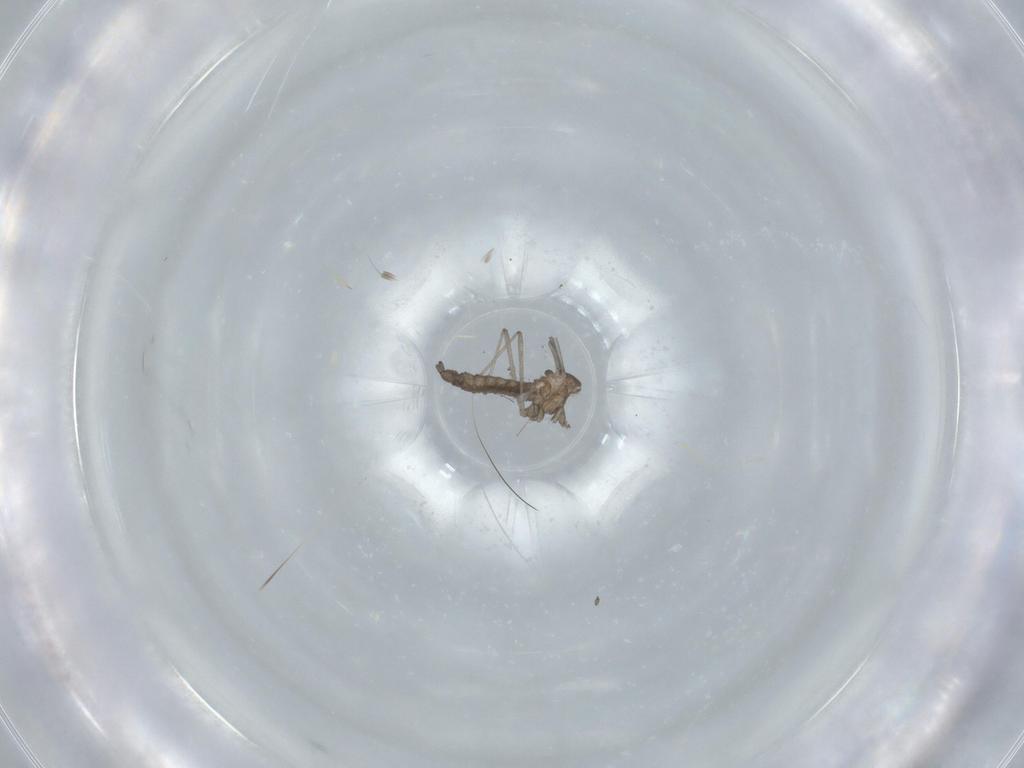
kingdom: Animalia
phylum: Arthropoda
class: Insecta
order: Diptera
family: Cecidomyiidae
